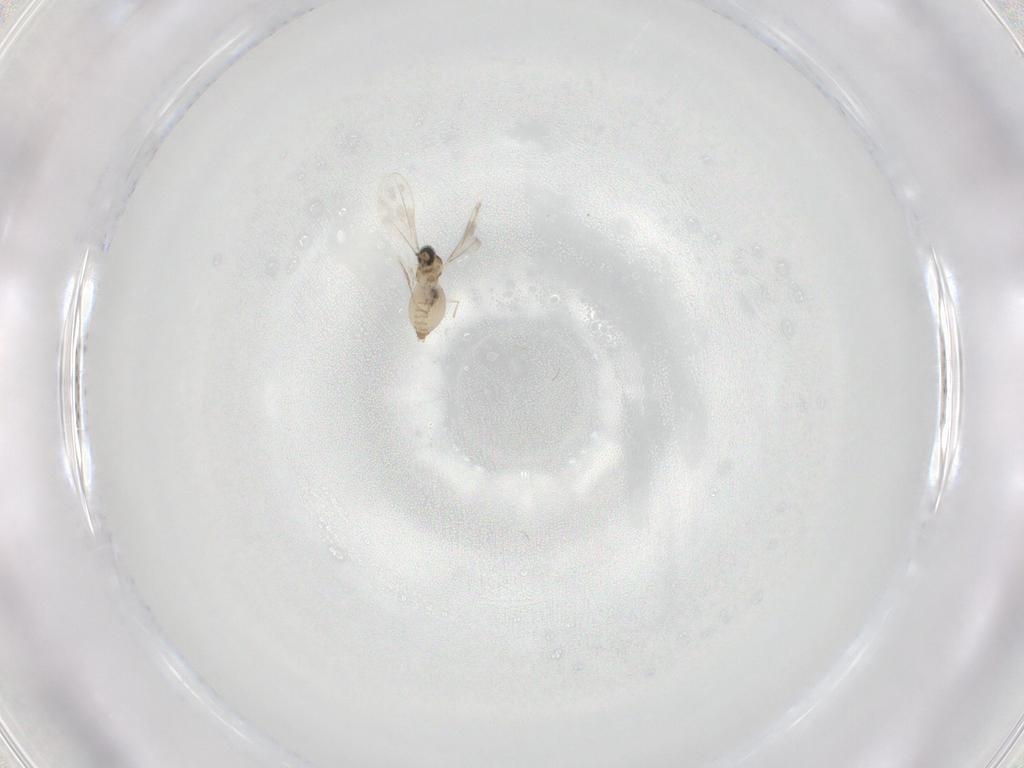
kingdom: Animalia
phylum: Arthropoda
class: Insecta
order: Diptera
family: Cecidomyiidae
